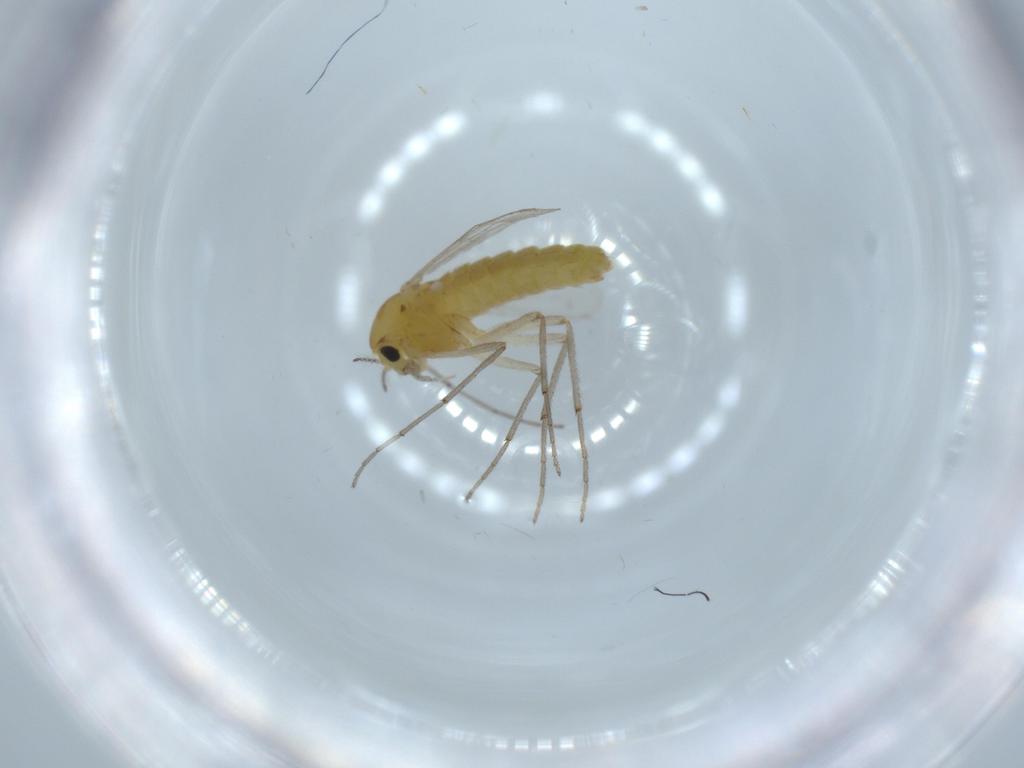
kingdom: Animalia
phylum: Arthropoda
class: Insecta
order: Diptera
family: Chironomidae
